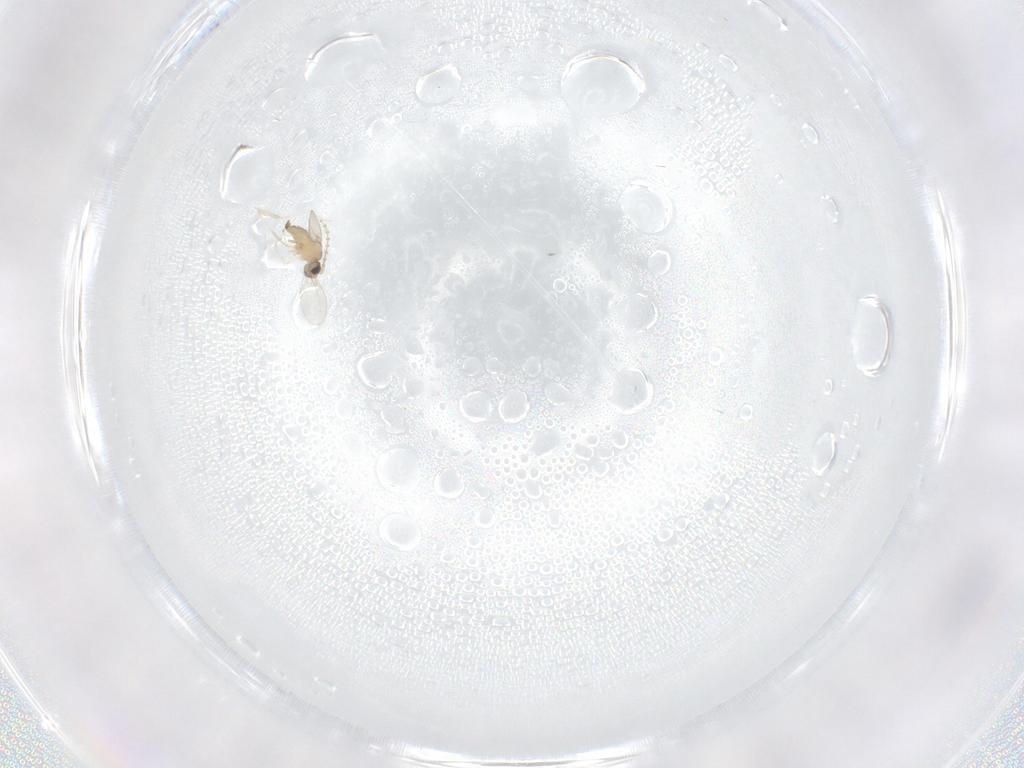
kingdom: Animalia
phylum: Arthropoda
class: Insecta
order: Diptera
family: Cecidomyiidae
